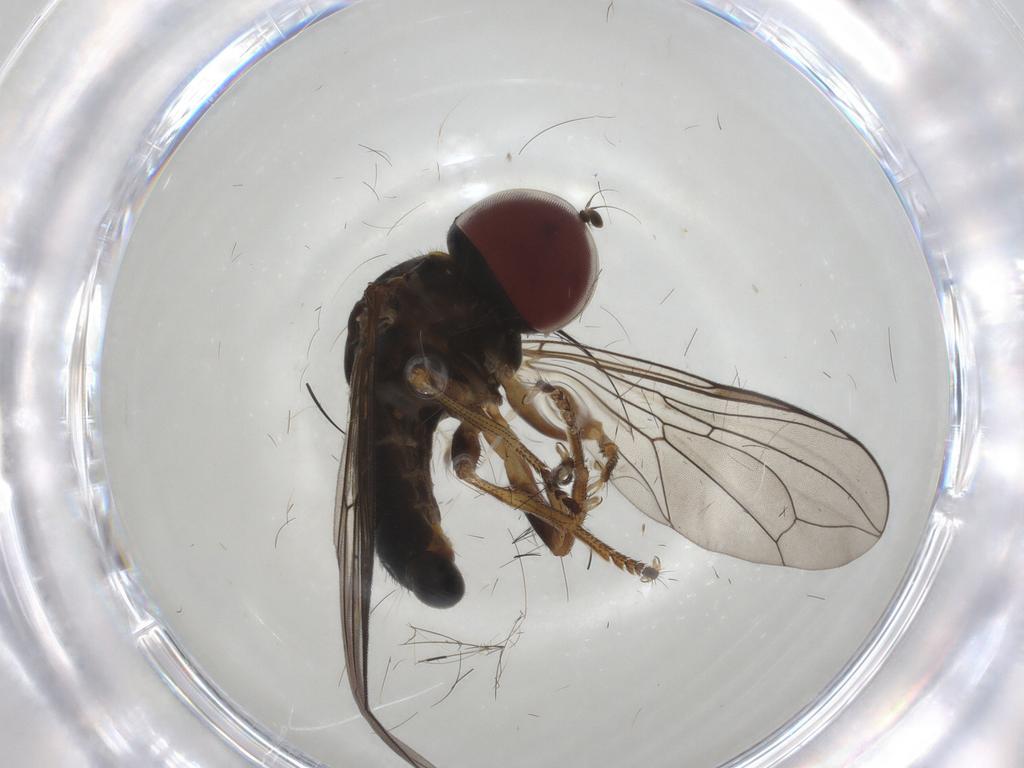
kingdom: Animalia
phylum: Arthropoda
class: Insecta
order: Diptera
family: Chironomidae
